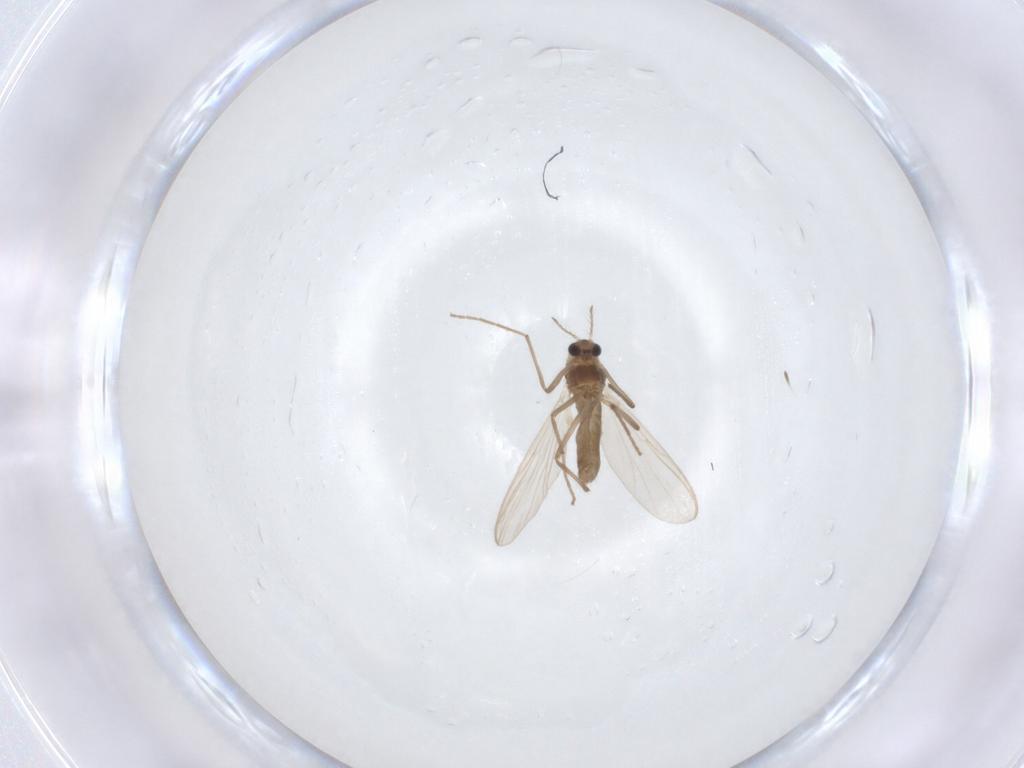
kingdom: Animalia
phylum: Arthropoda
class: Insecta
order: Diptera
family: Chironomidae
